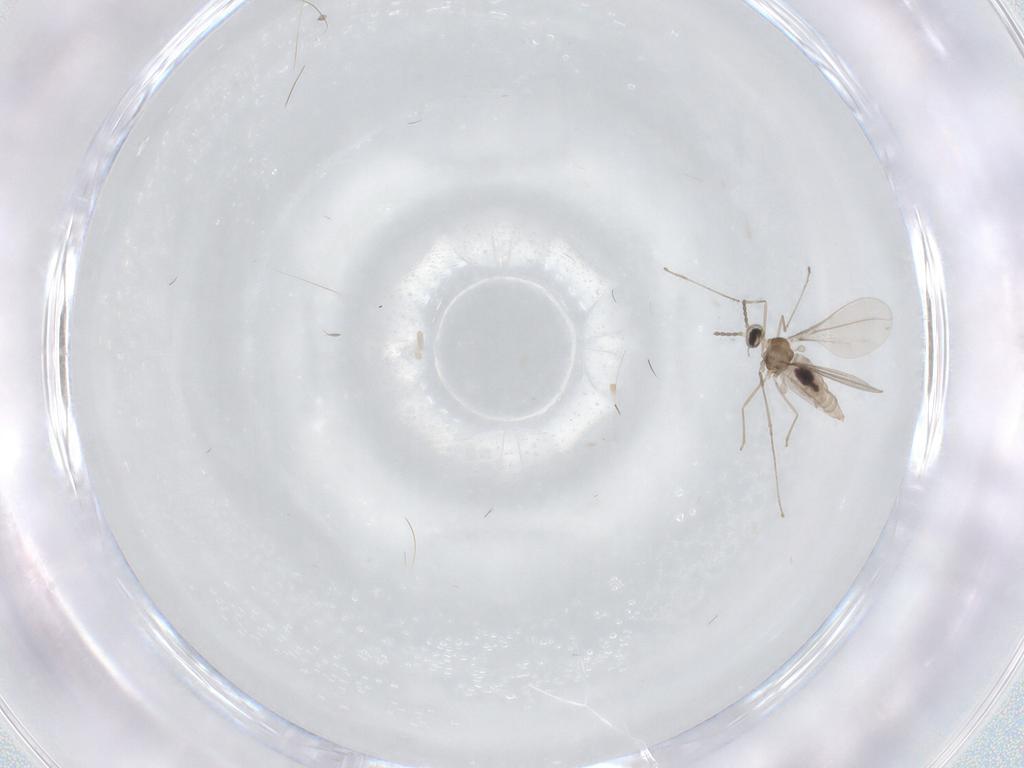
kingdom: Animalia
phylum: Arthropoda
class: Insecta
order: Diptera
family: Psychodidae
